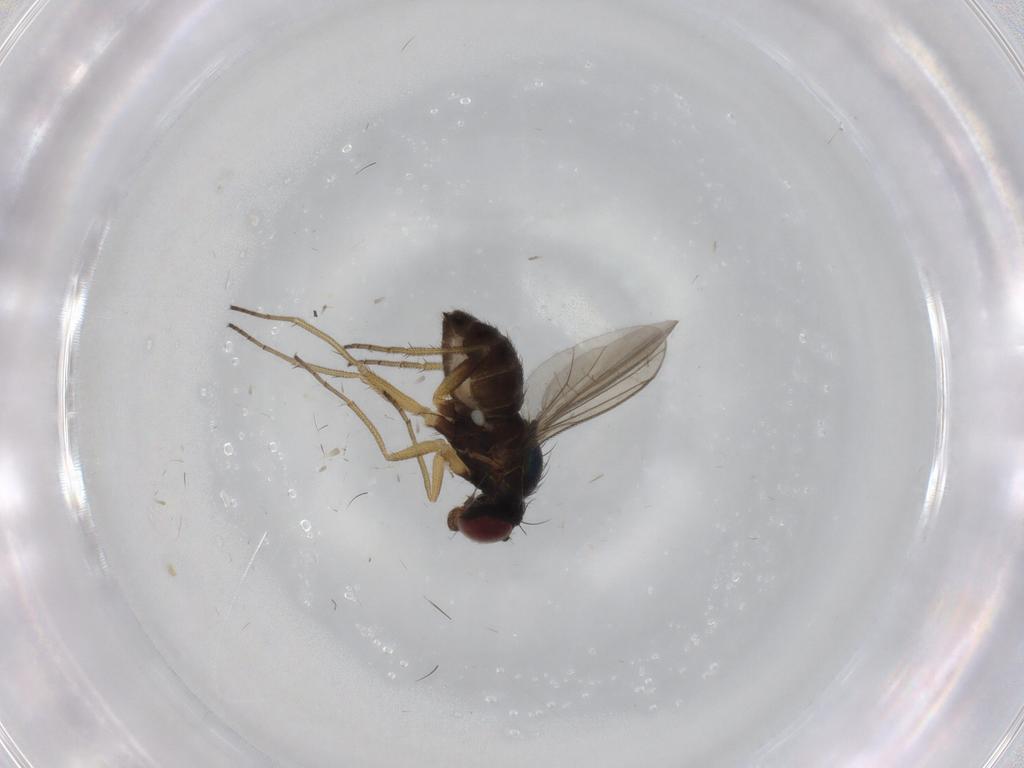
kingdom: Animalia
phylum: Arthropoda
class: Insecta
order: Diptera
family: Dolichopodidae
